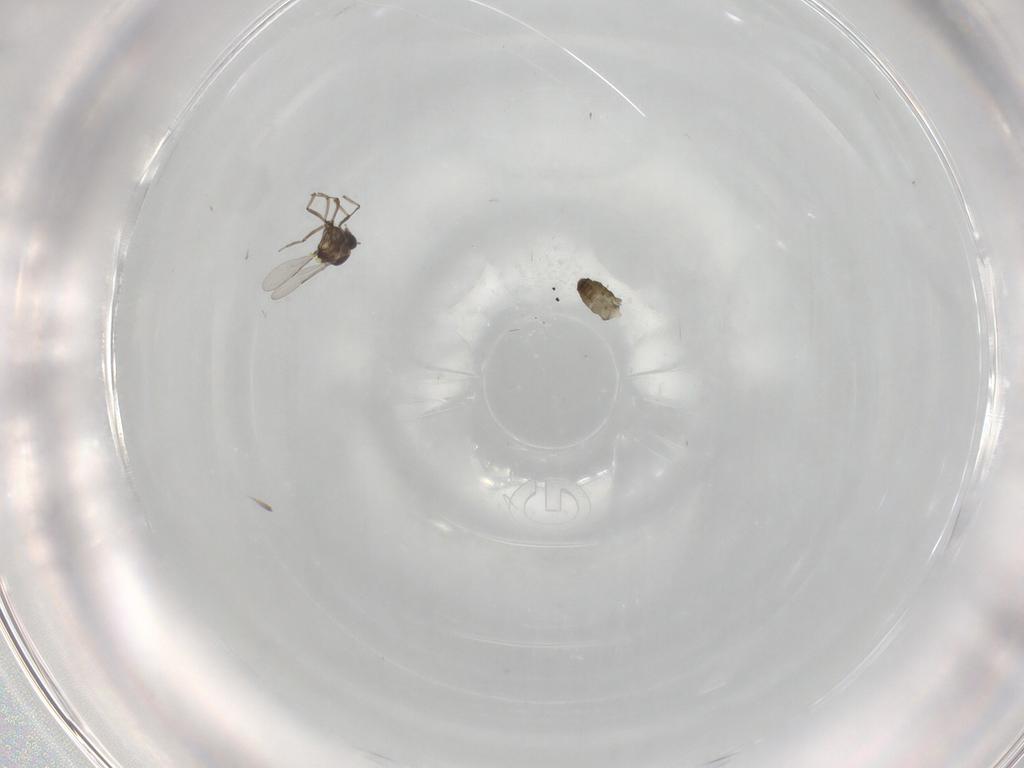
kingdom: Animalia
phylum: Arthropoda
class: Insecta
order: Diptera
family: Ceratopogonidae
